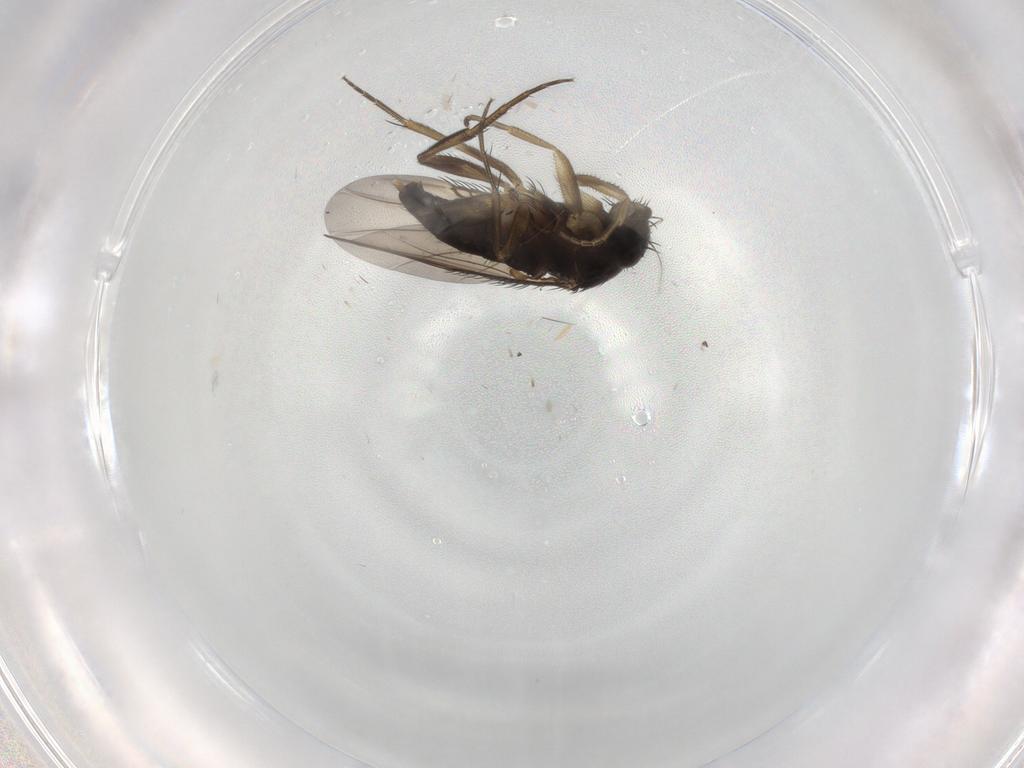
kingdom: Animalia
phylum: Arthropoda
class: Insecta
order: Diptera
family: Phoridae
